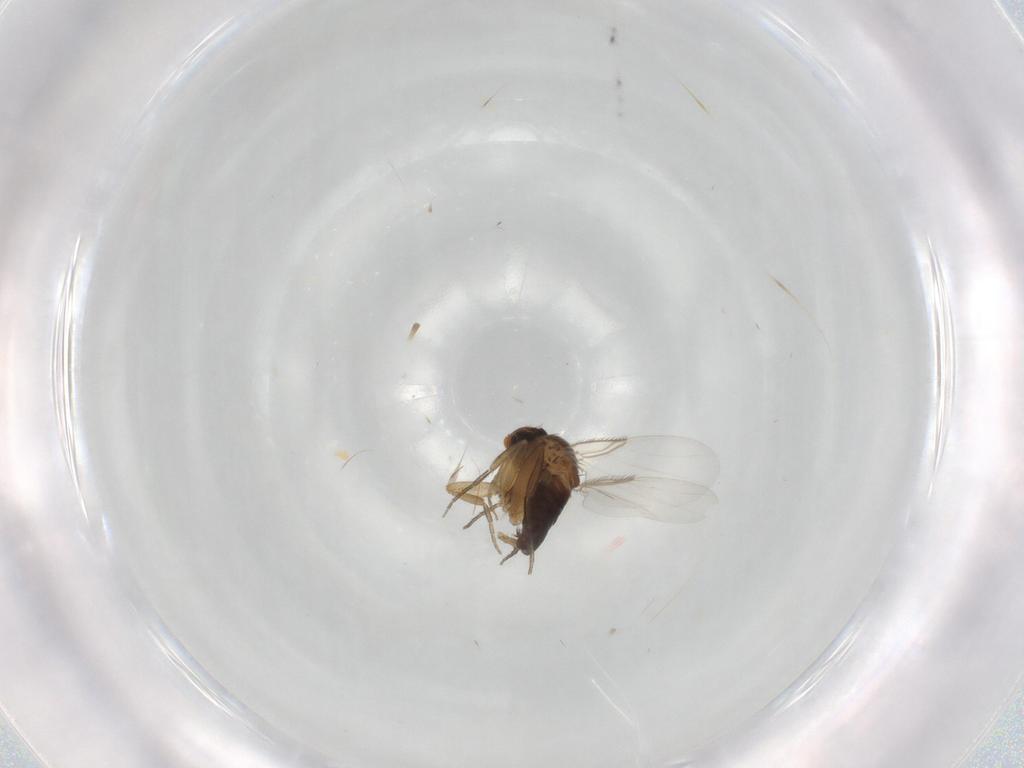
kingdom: Animalia
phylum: Arthropoda
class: Insecta
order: Diptera
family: Phoridae
